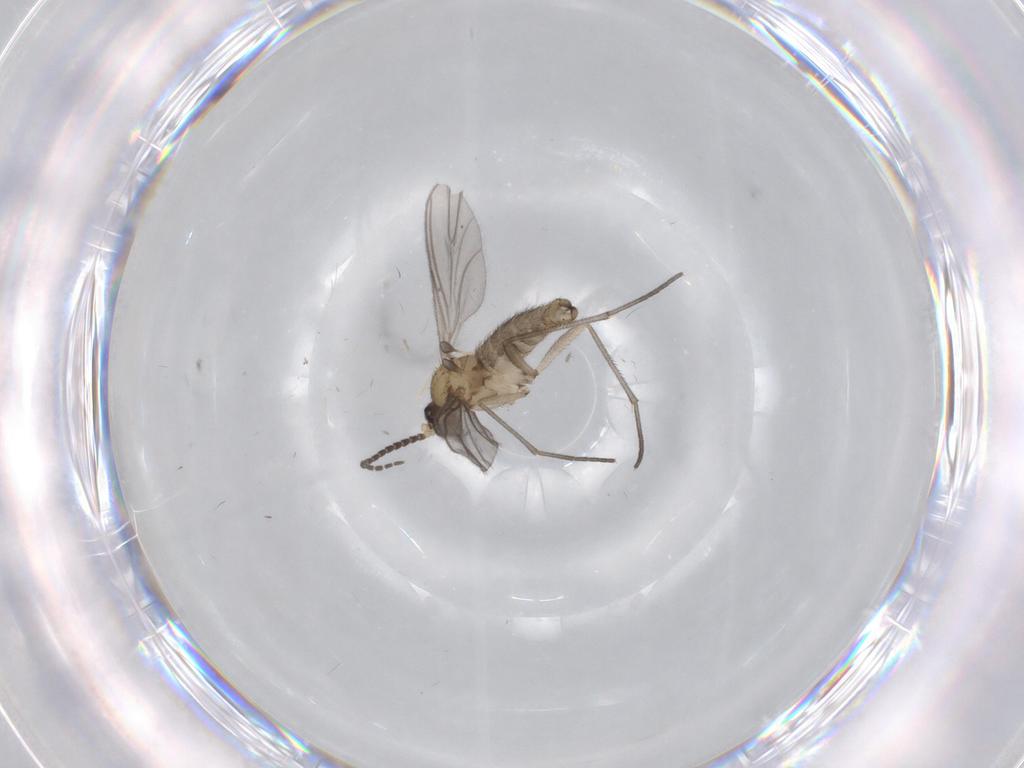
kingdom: Animalia
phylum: Arthropoda
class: Insecta
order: Diptera
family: Sciaridae
